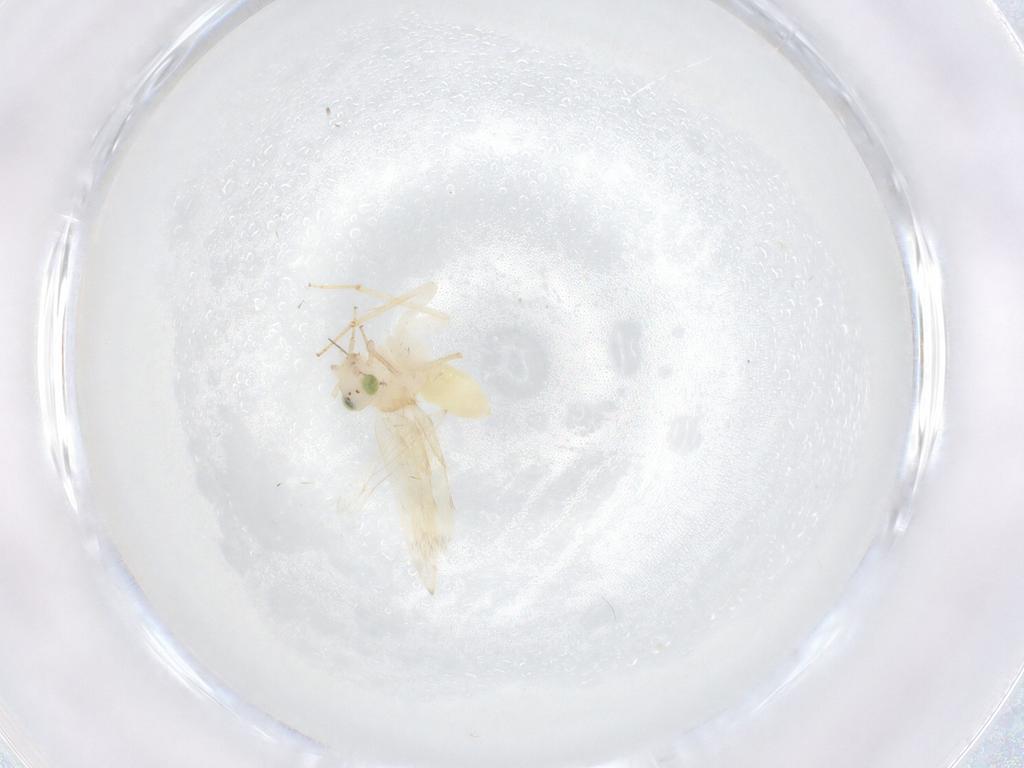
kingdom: Animalia
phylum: Arthropoda
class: Insecta
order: Psocodea
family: Lepidopsocidae
